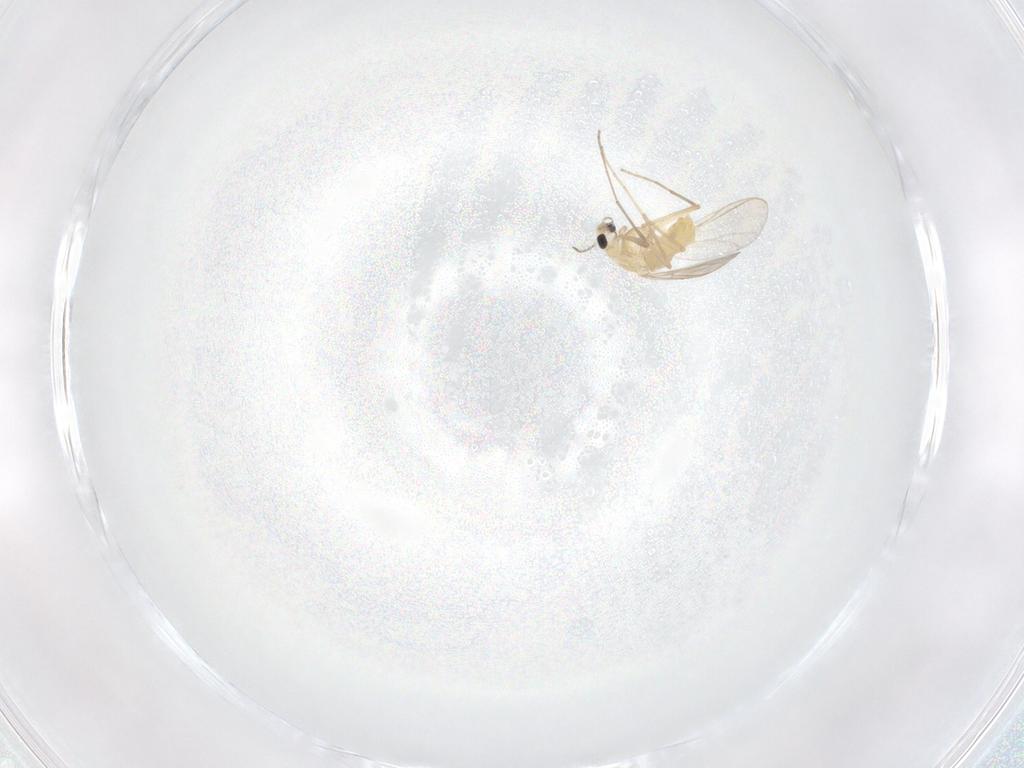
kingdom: Animalia
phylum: Arthropoda
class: Insecta
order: Diptera
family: Chironomidae
